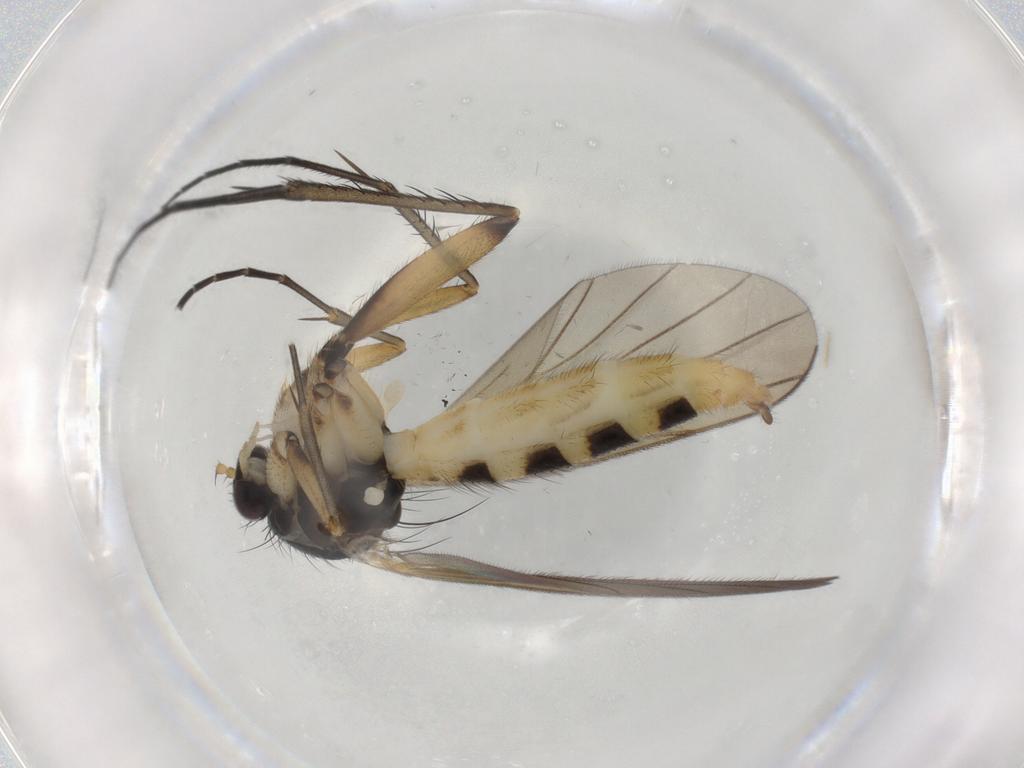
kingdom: Animalia
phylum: Arthropoda
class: Insecta
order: Diptera
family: Mycetophilidae
